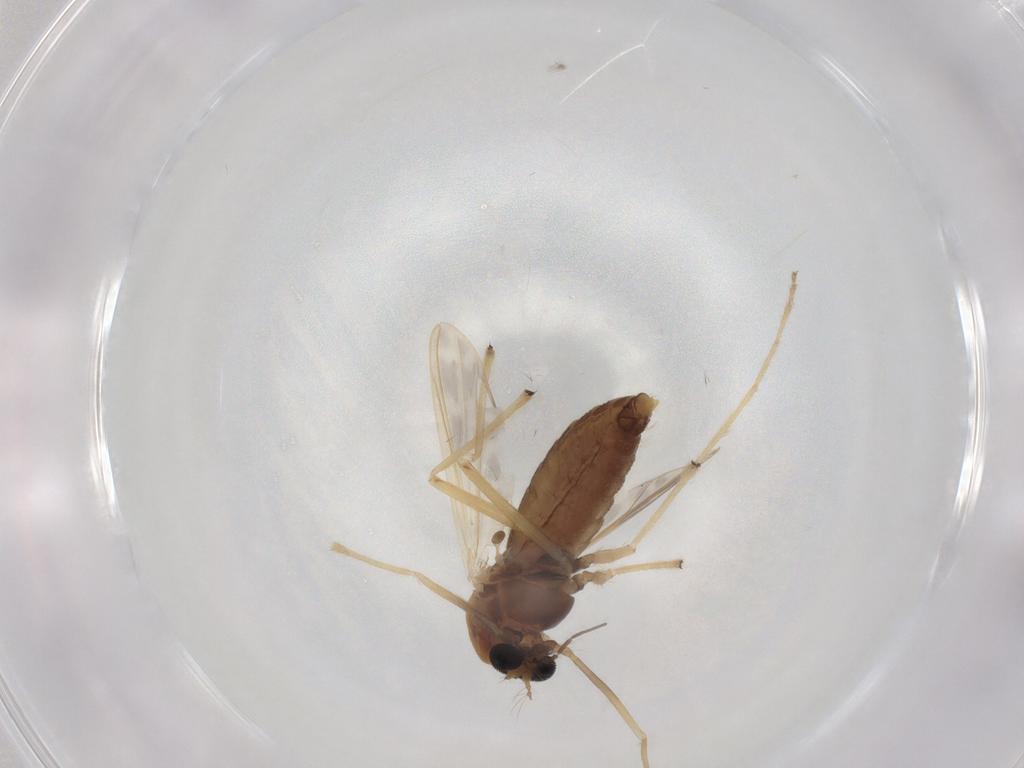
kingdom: Animalia
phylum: Arthropoda
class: Insecta
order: Diptera
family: Chironomidae
